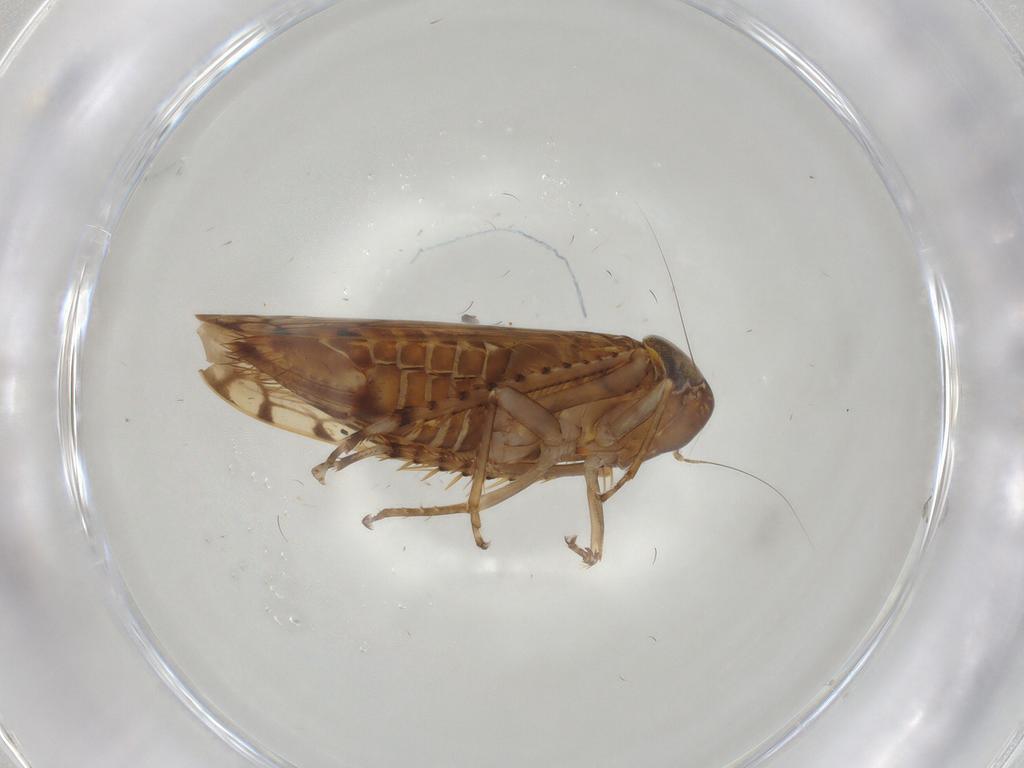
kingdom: Animalia
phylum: Arthropoda
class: Insecta
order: Hemiptera
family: Cicadellidae
